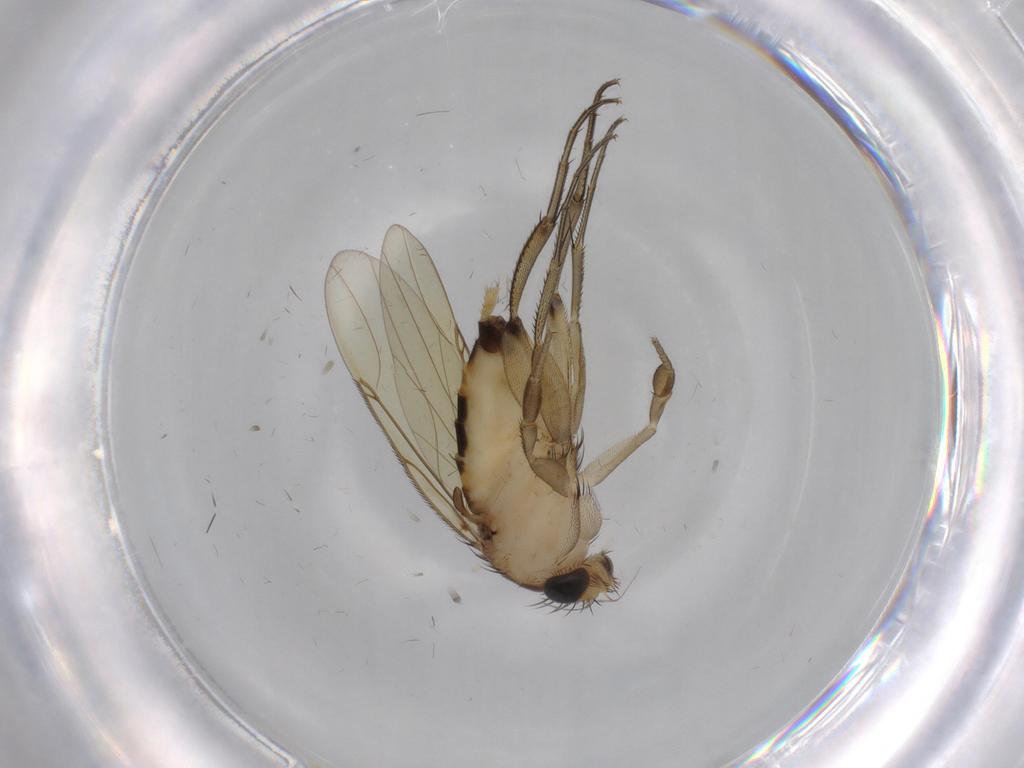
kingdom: Animalia
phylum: Arthropoda
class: Insecta
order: Diptera
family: Phoridae
